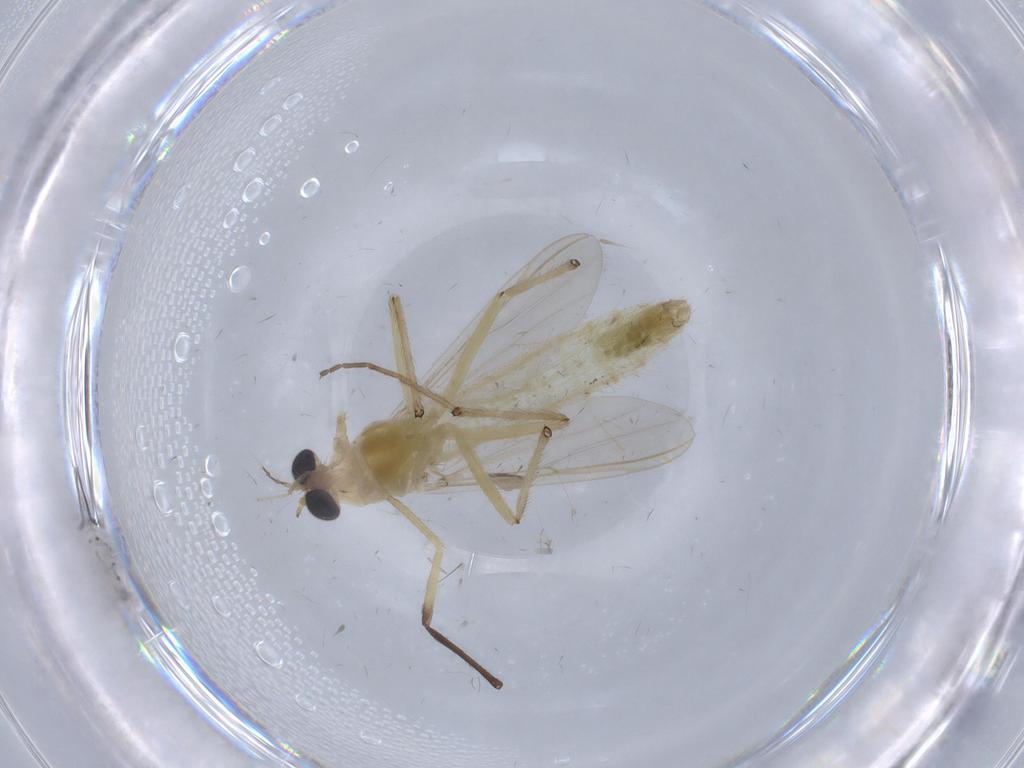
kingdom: Animalia
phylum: Arthropoda
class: Insecta
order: Diptera
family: Chironomidae
